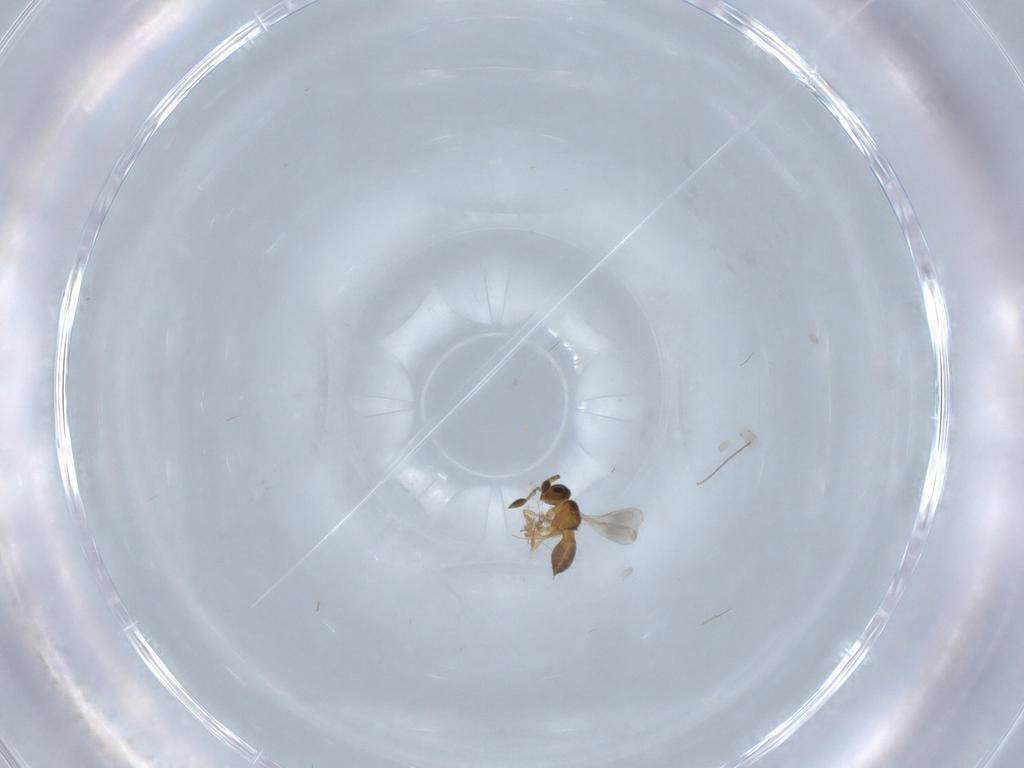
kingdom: Animalia
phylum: Arthropoda
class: Insecta
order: Hymenoptera
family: Scelionidae
